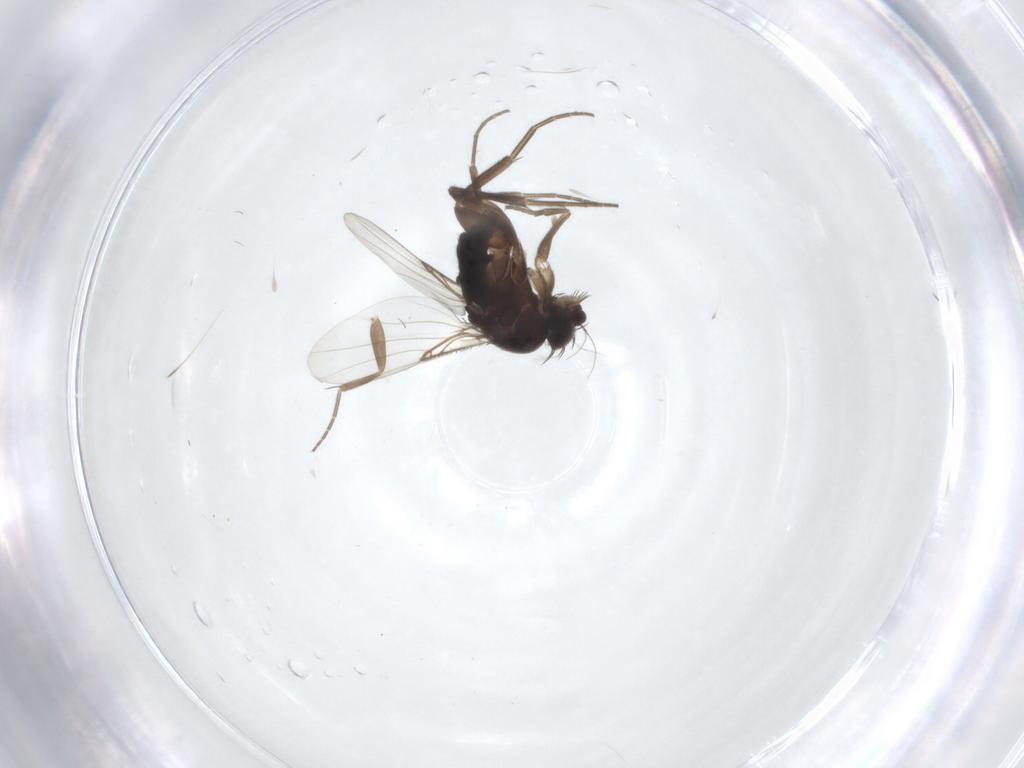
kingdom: Animalia
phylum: Arthropoda
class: Insecta
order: Diptera
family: Phoridae
